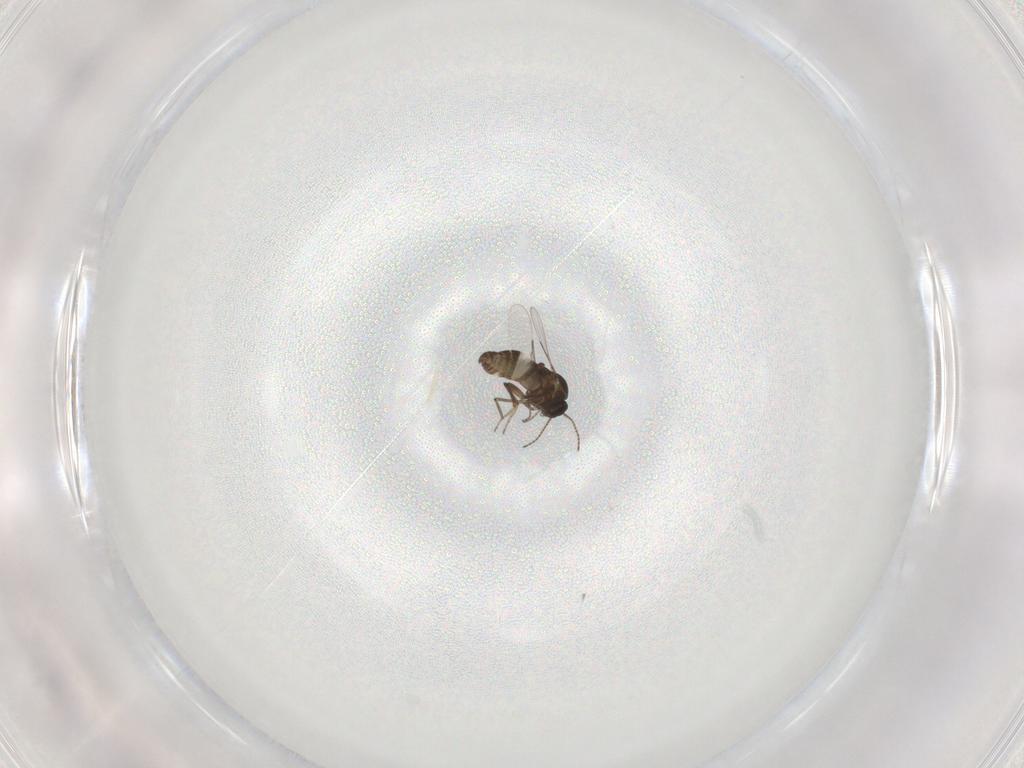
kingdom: Animalia
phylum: Arthropoda
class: Insecta
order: Diptera
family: Ceratopogonidae
